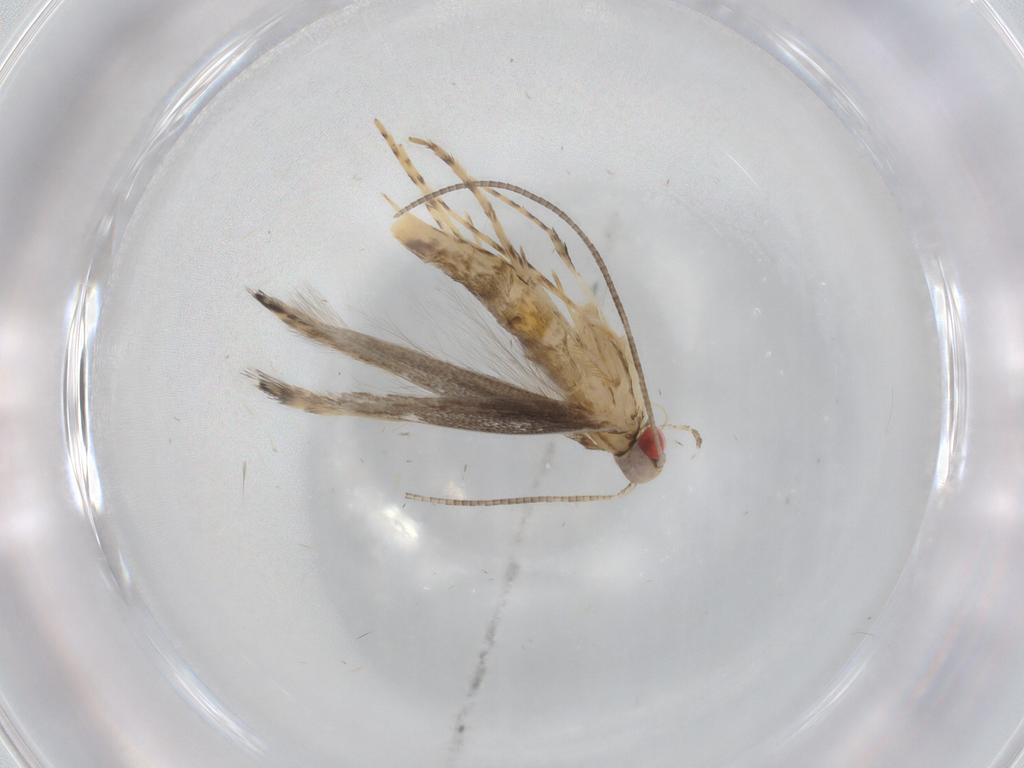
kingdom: Animalia
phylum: Arthropoda
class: Insecta
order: Lepidoptera
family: Gracillariidae
